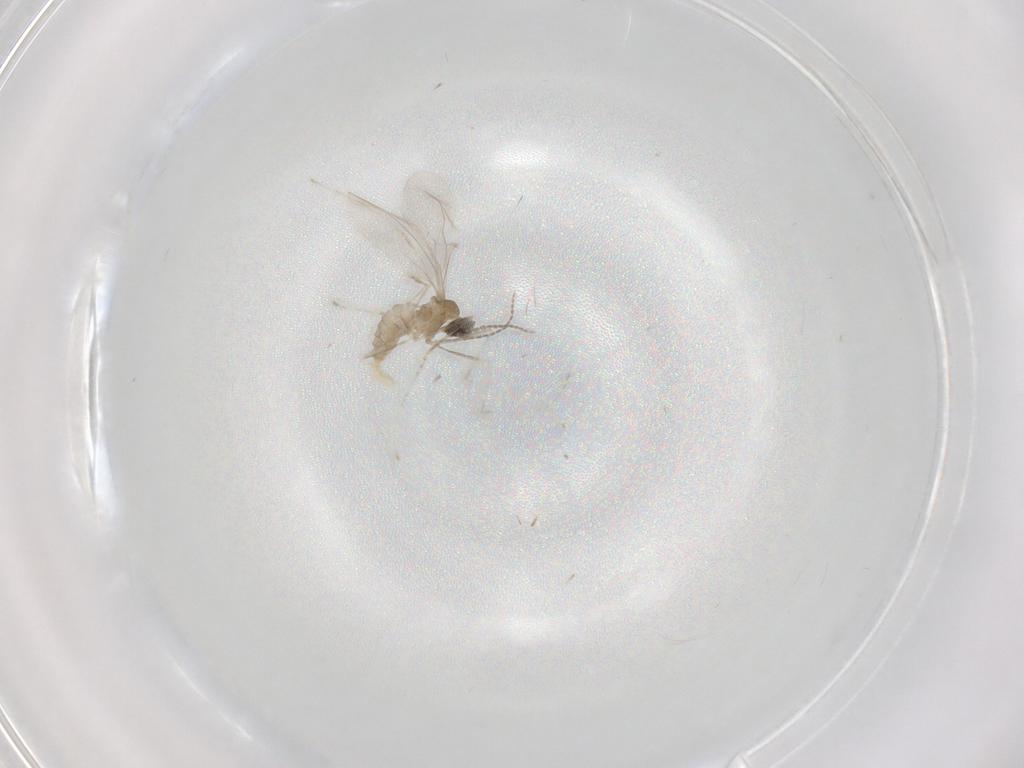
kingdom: Animalia
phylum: Arthropoda
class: Insecta
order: Diptera
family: Cecidomyiidae
